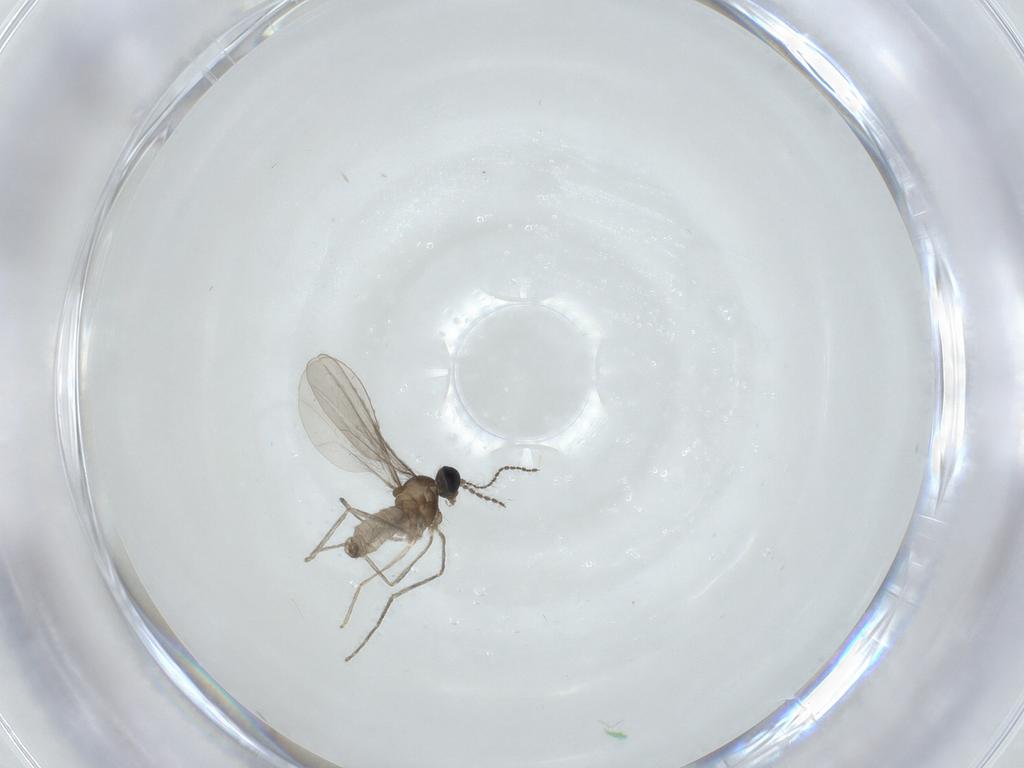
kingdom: Animalia
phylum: Arthropoda
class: Insecta
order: Diptera
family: Cecidomyiidae
